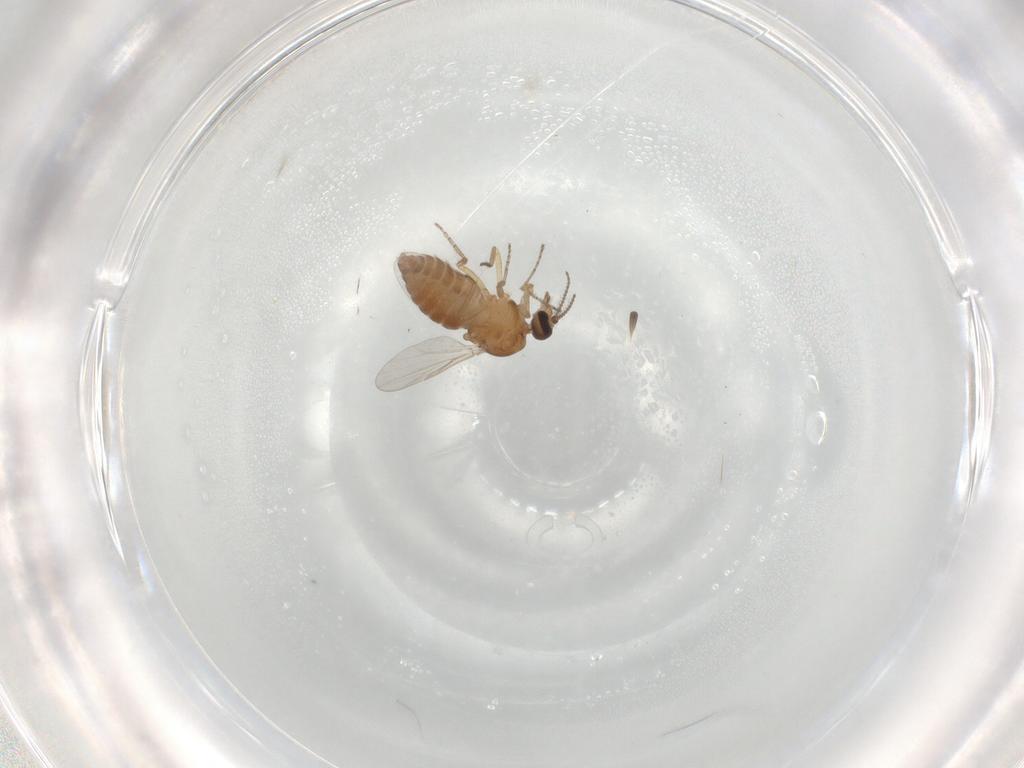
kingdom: Animalia
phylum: Arthropoda
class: Insecta
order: Diptera
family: Ceratopogonidae
